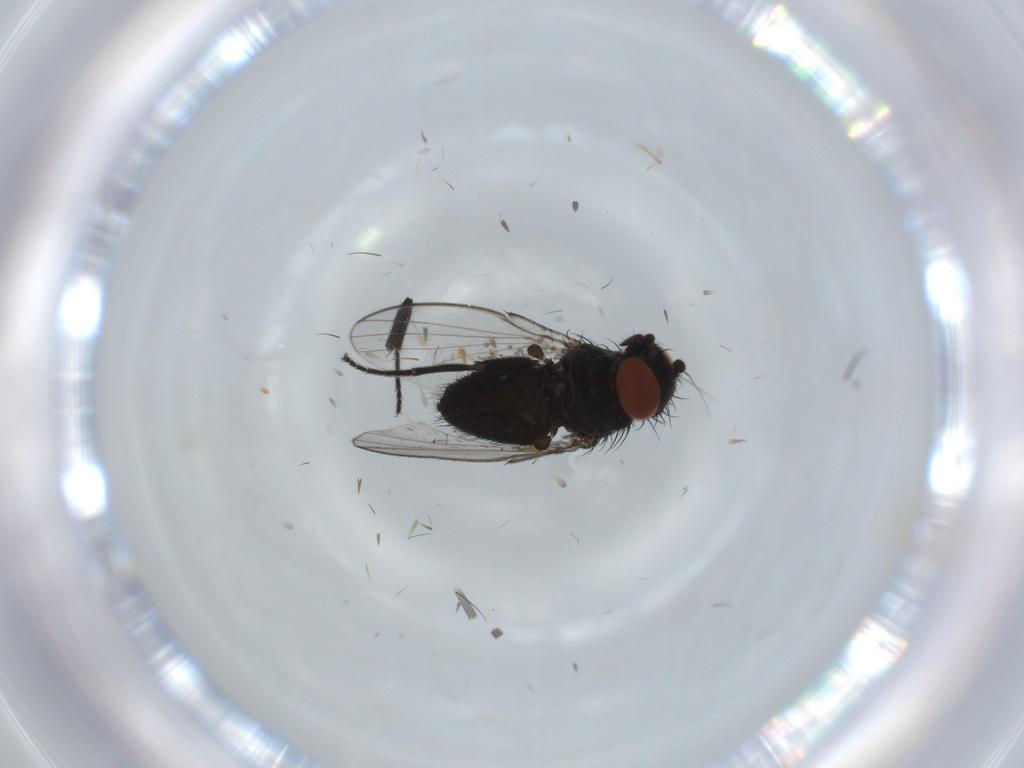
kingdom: Animalia
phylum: Arthropoda
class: Insecta
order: Diptera
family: Milichiidae
